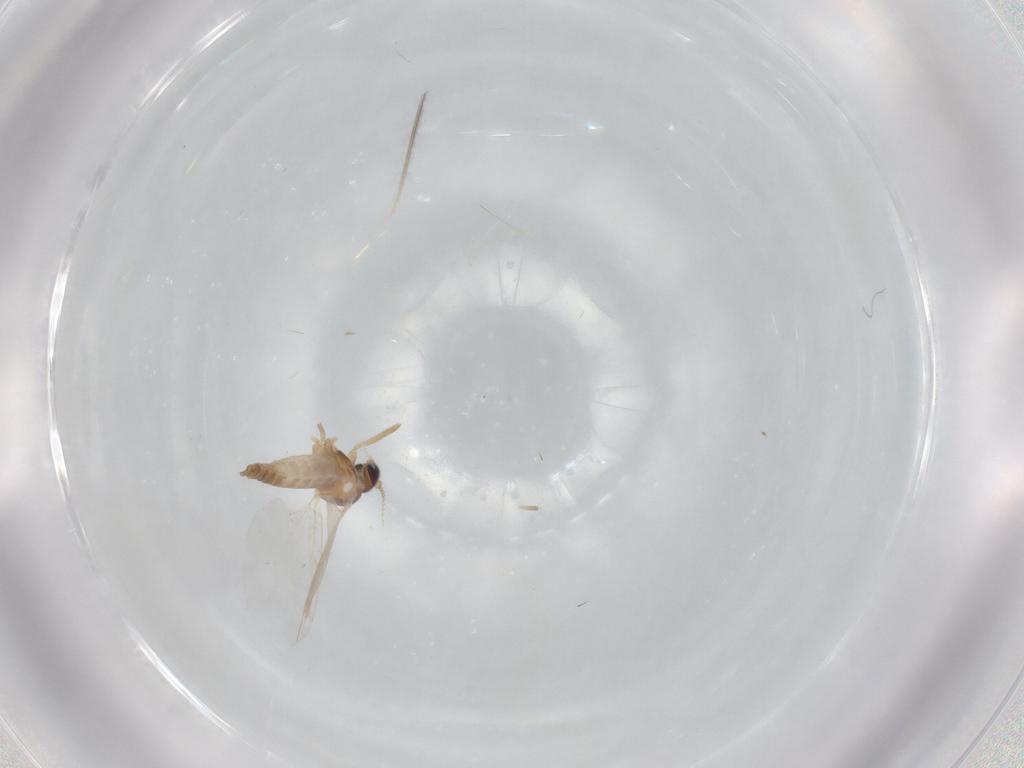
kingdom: Animalia
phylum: Arthropoda
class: Insecta
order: Diptera
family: Cecidomyiidae
